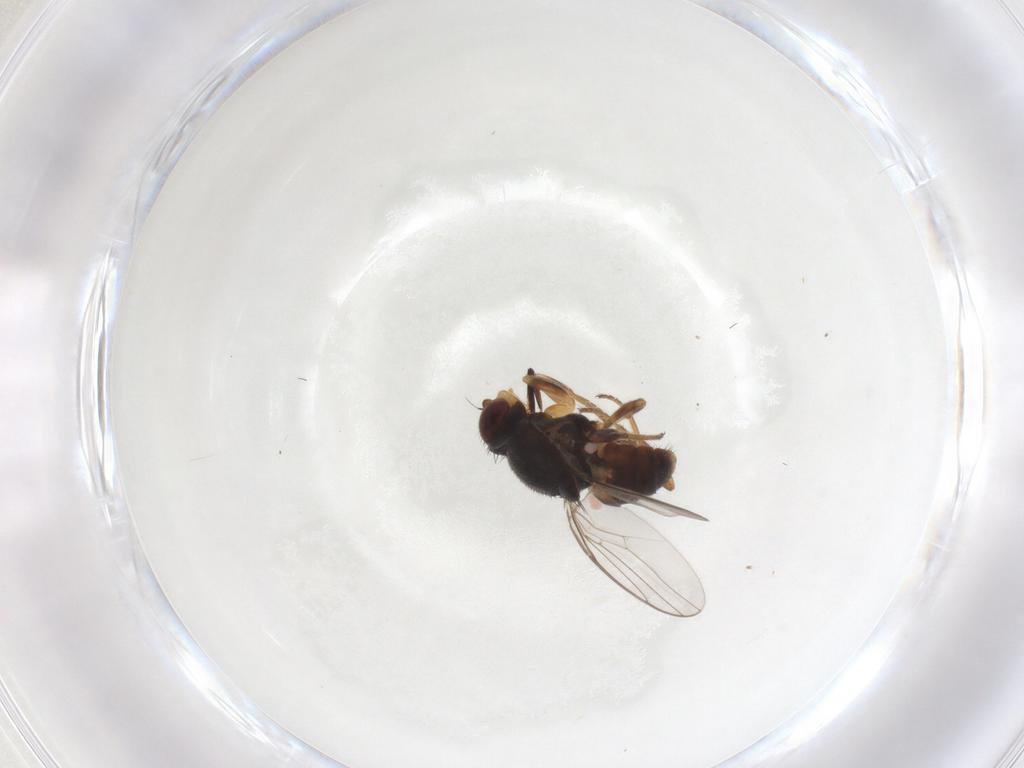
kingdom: Animalia
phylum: Arthropoda
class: Insecta
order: Diptera
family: Chloropidae
